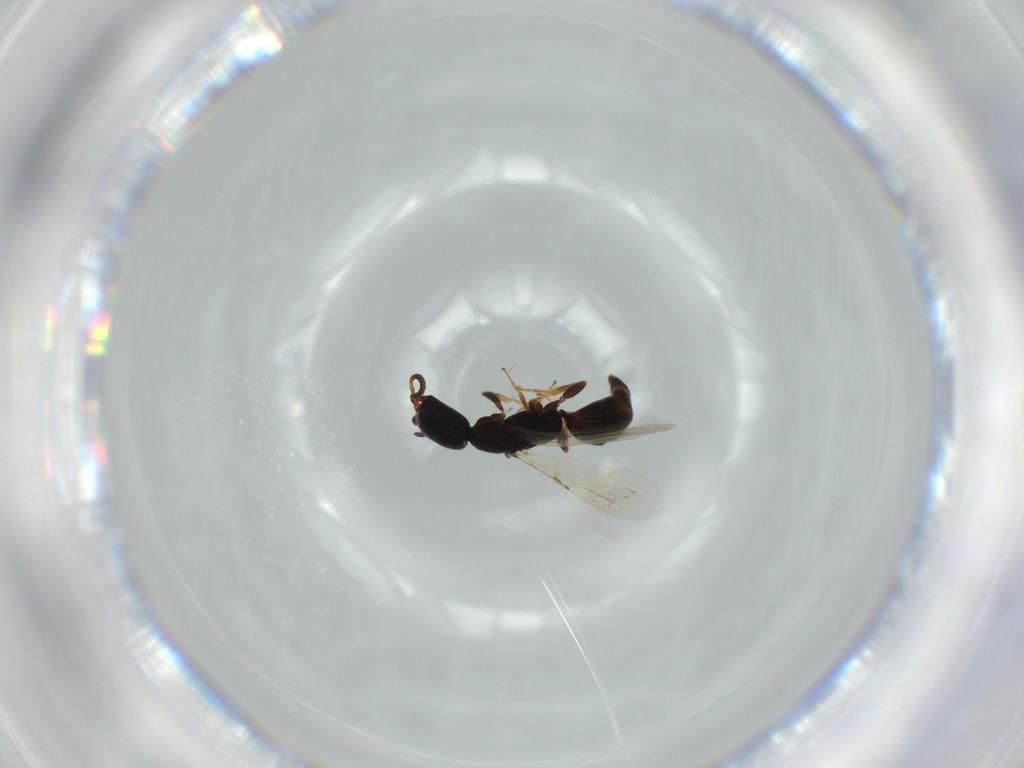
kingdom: Animalia
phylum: Arthropoda
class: Insecta
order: Hymenoptera
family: Bethylidae
